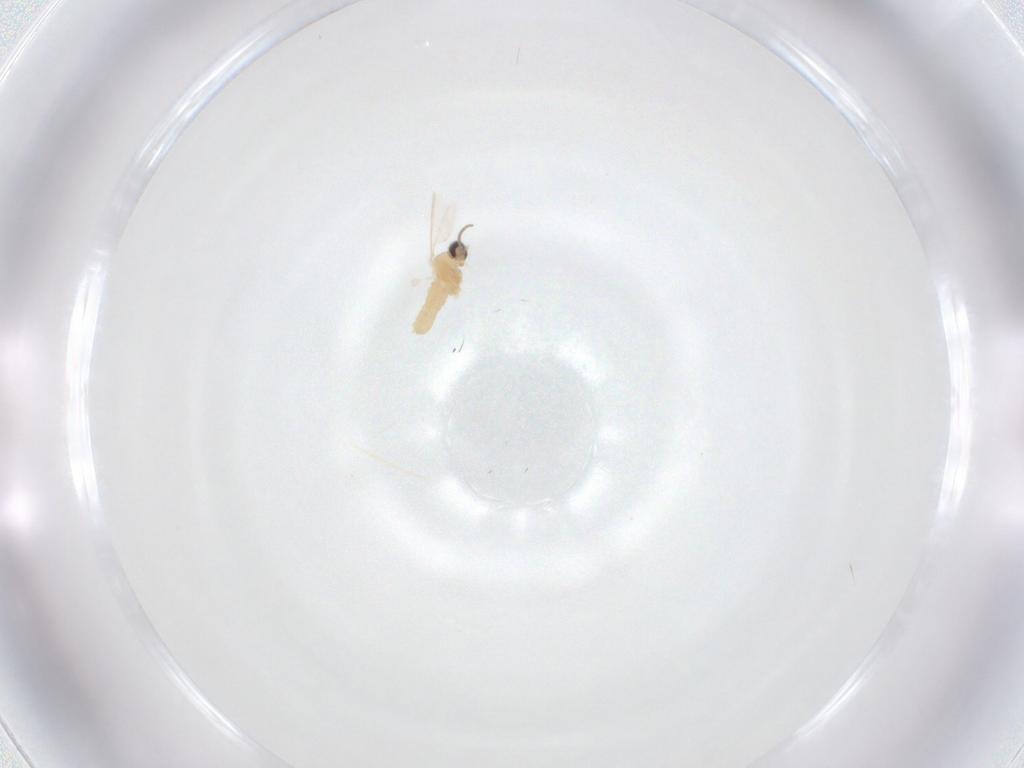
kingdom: Animalia
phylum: Arthropoda
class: Insecta
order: Diptera
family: Cecidomyiidae
